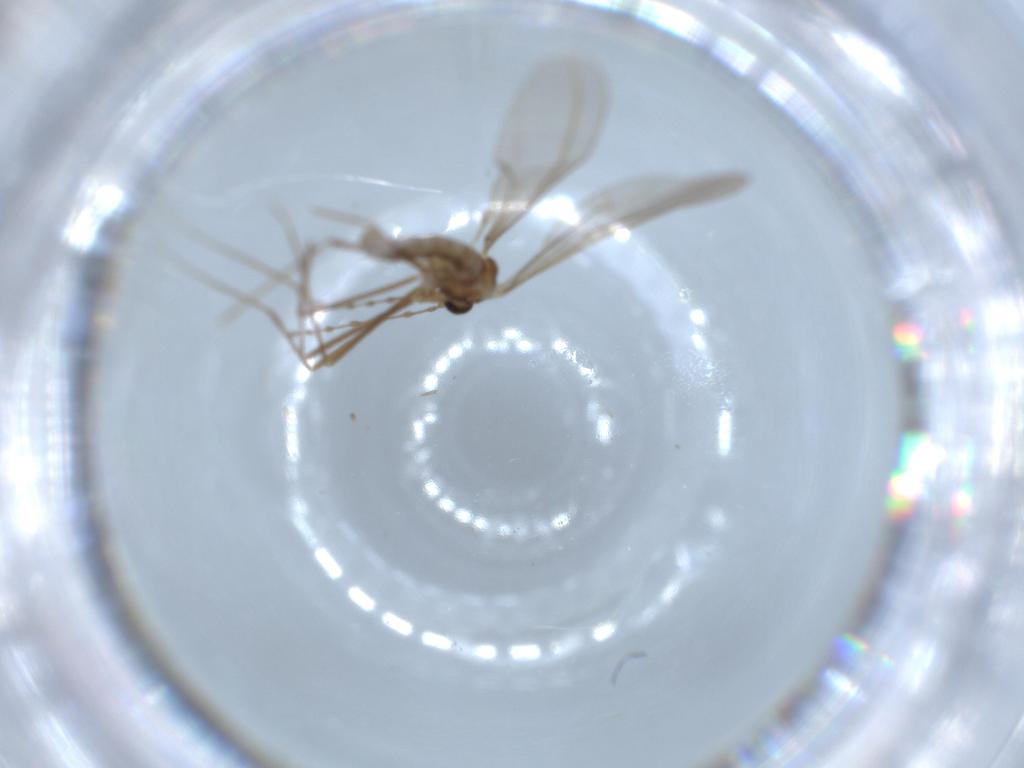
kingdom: Animalia
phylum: Arthropoda
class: Insecta
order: Diptera
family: Cecidomyiidae
